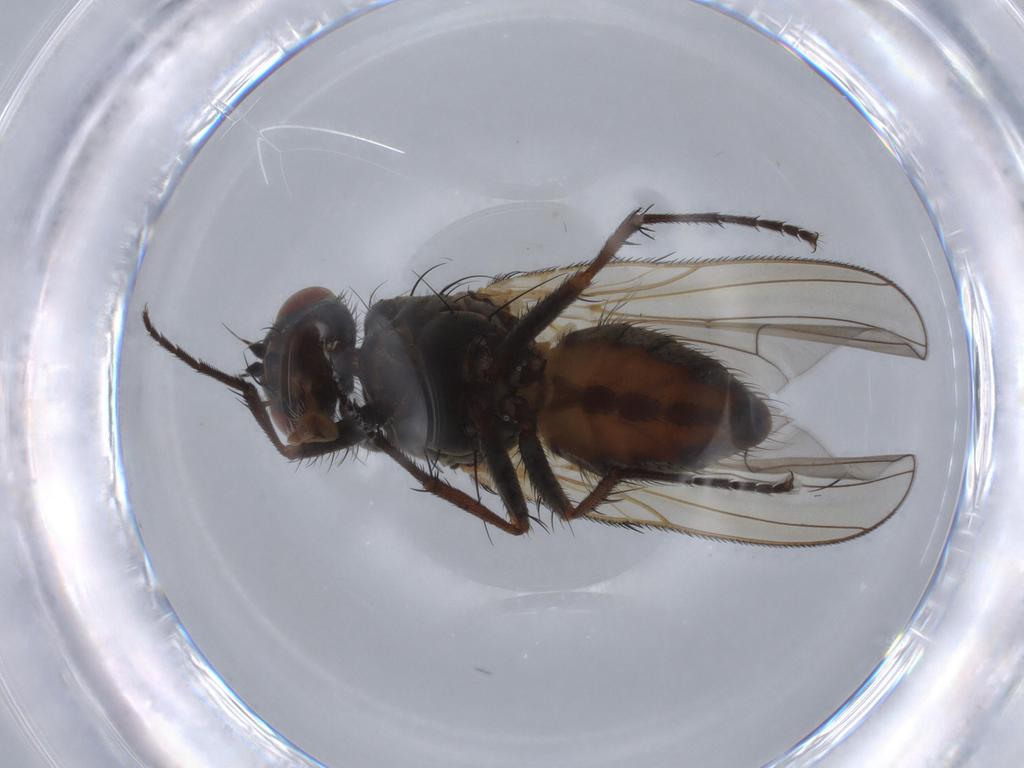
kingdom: Animalia
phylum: Arthropoda
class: Insecta
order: Diptera
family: Anthomyiidae
